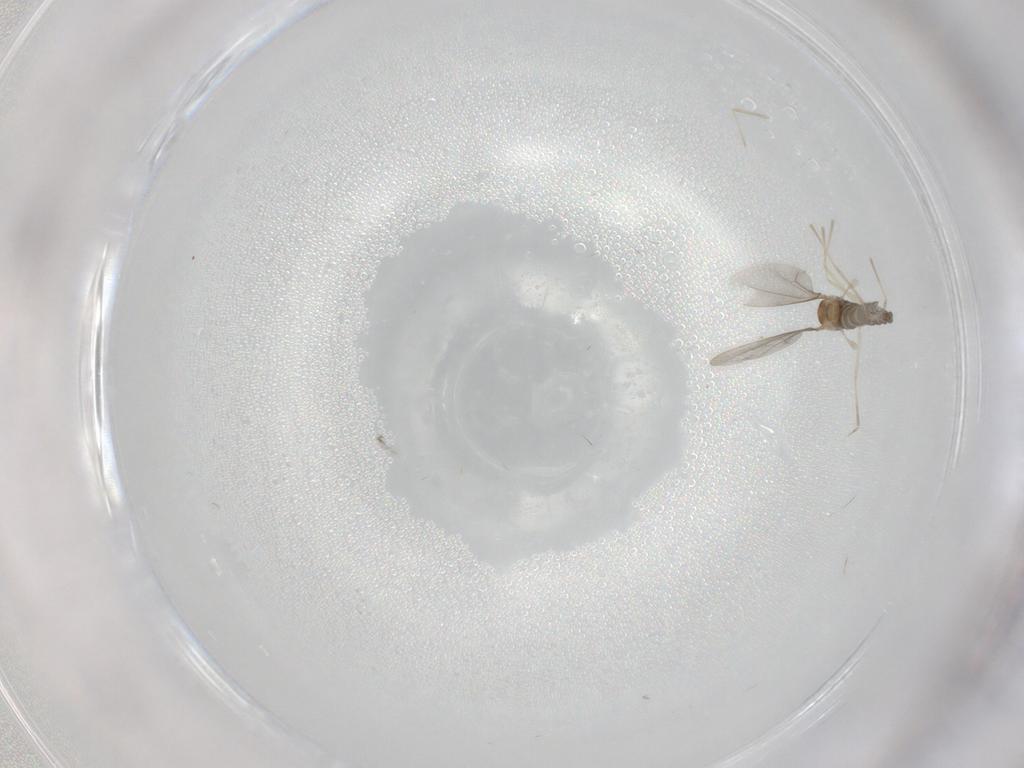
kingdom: Animalia
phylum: Arthropoda
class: Insecta
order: Diptera
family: Cecidomyiidae
